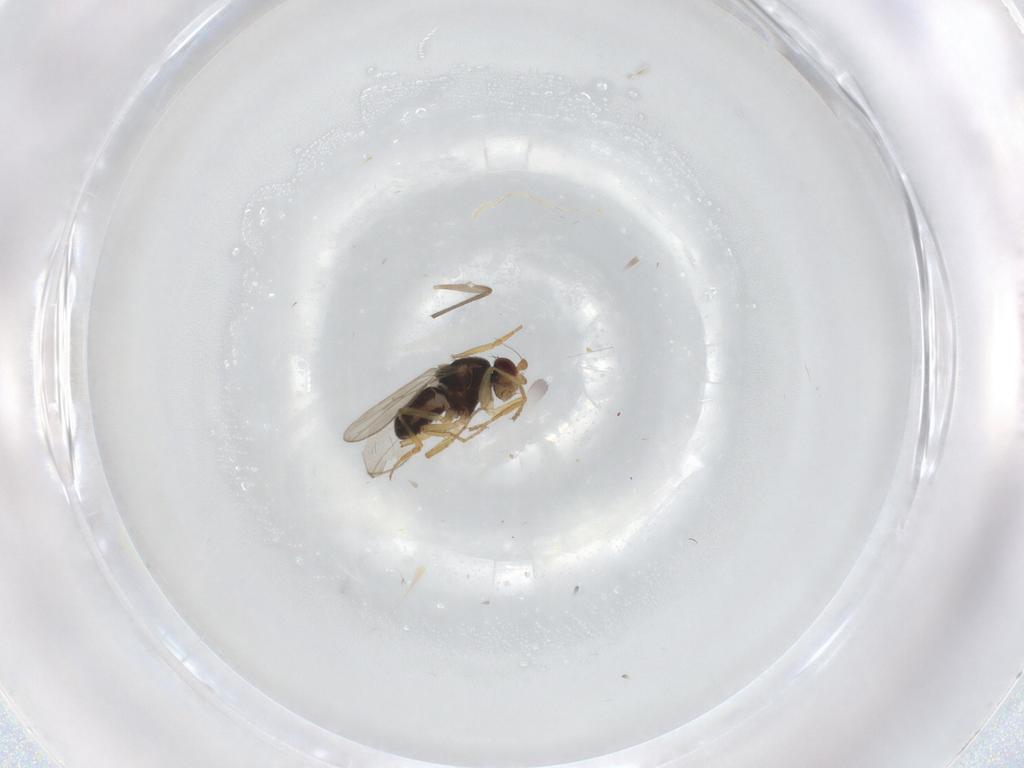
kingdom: Animalia
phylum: Arthropoda
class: Insecta
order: Diptera
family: Sphaeroceridae
